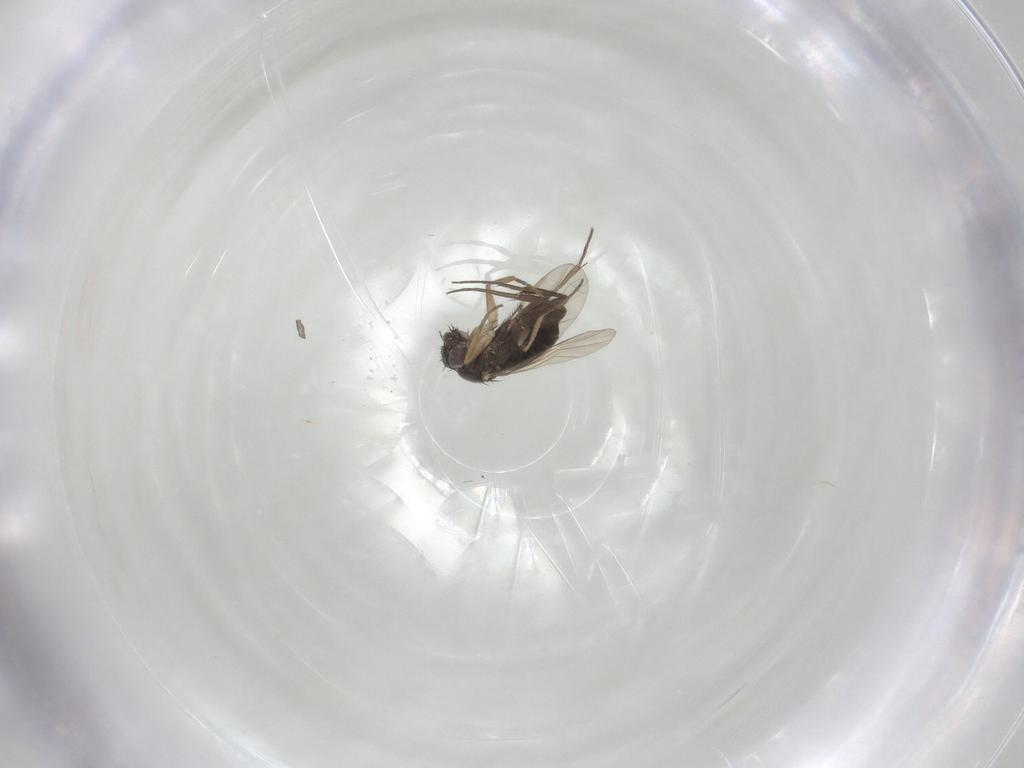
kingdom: Animalia
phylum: Arthropoda
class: Insecta
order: Diptera
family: Phoridae
